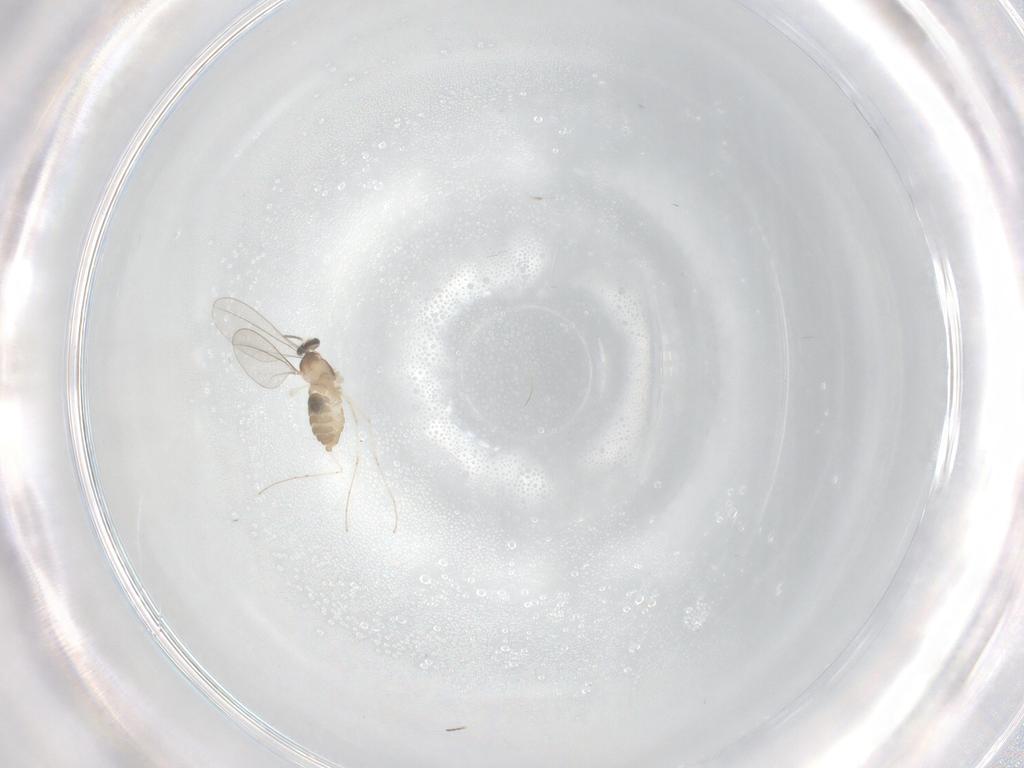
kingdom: Animalia
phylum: Arthropoda
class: Insecta
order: Diptera
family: Cecidomyiidae
